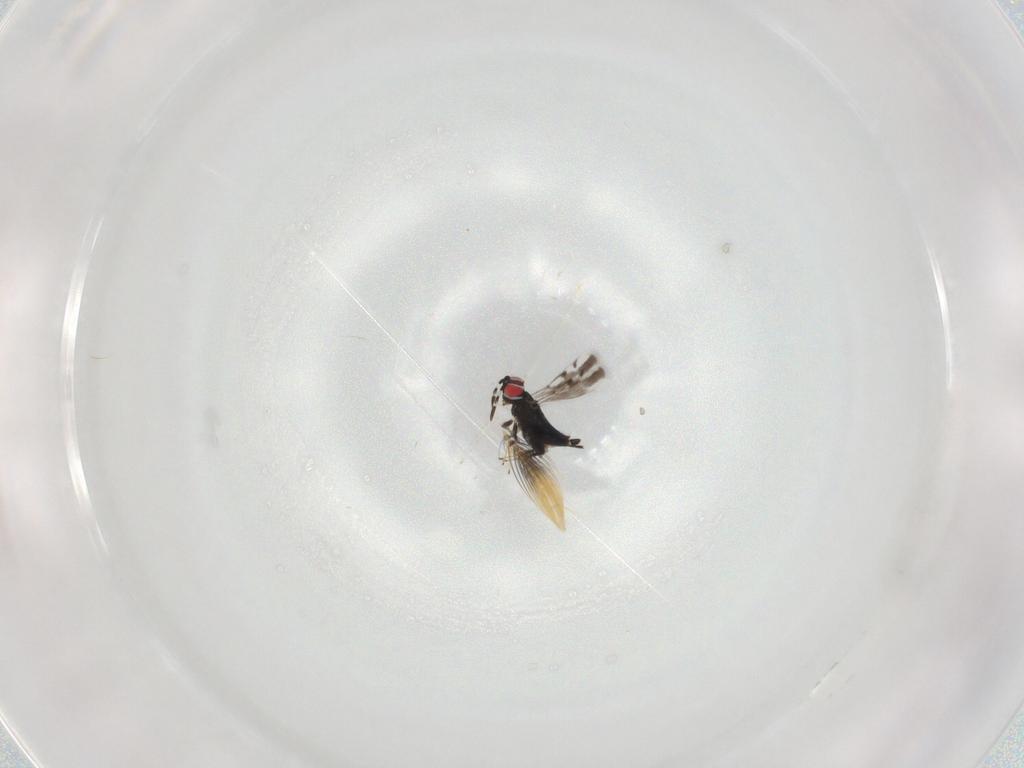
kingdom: Animalia
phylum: Arthropoda
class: Insecta
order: Hymenoptera
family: Azotidae
